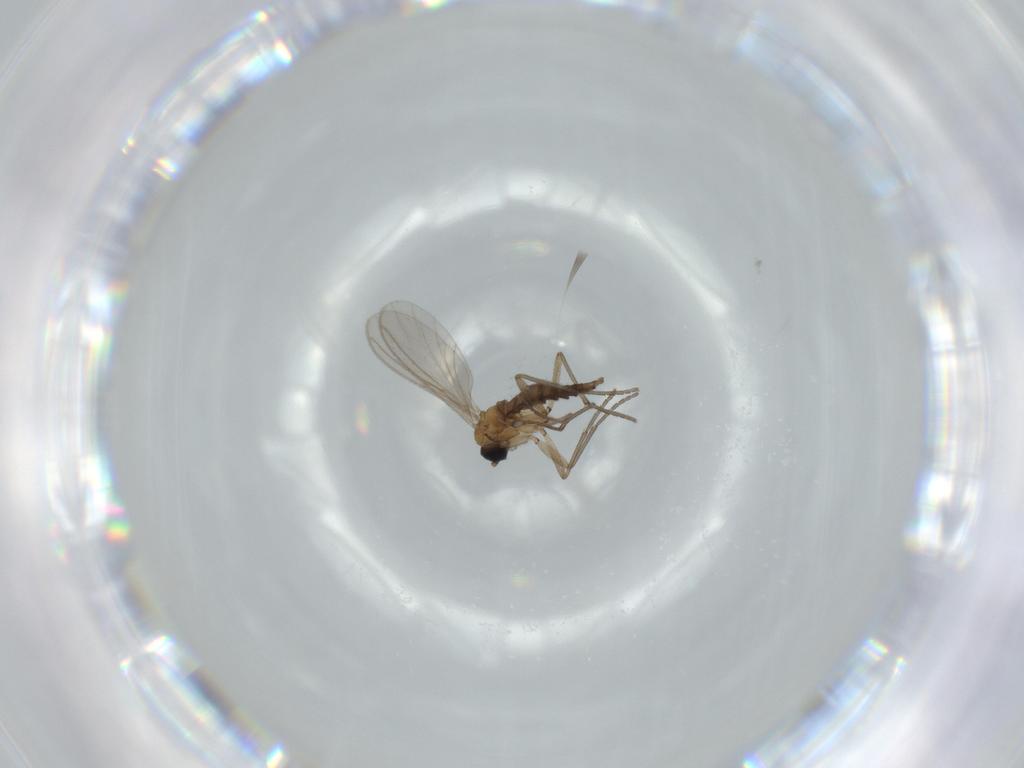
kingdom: Animalia
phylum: Arthropoda
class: Insecta
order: Diptera
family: Sciaridae
